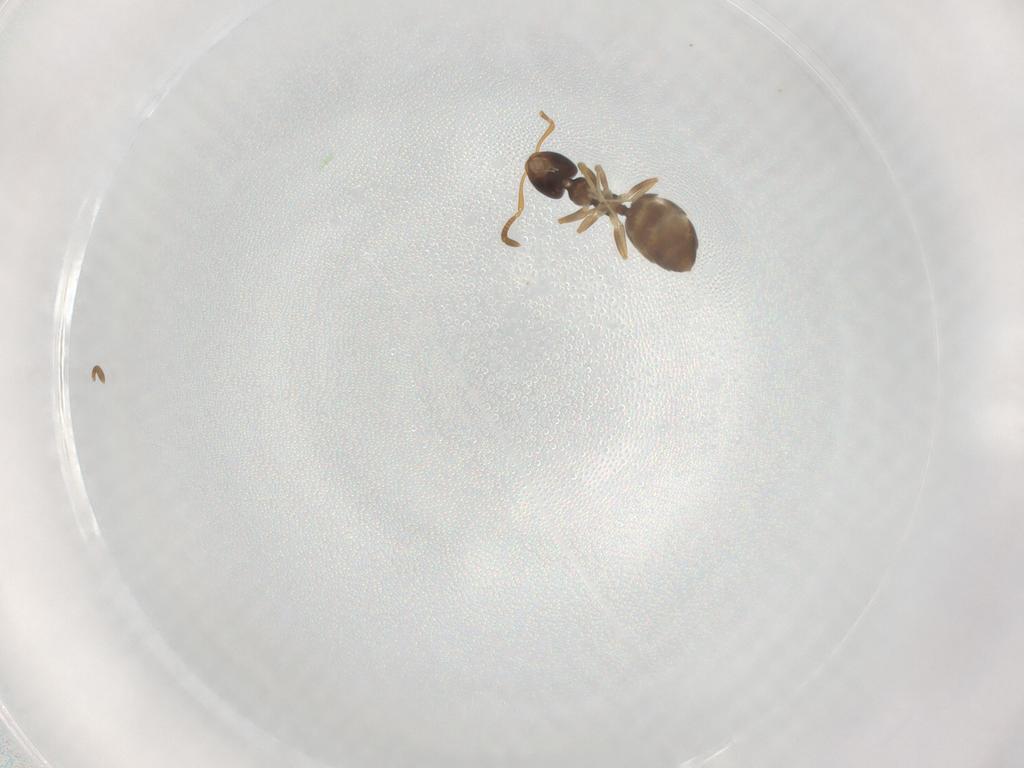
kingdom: Animalia
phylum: Arthropoda
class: Insecta
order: Hymenoptera
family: Formicidae
